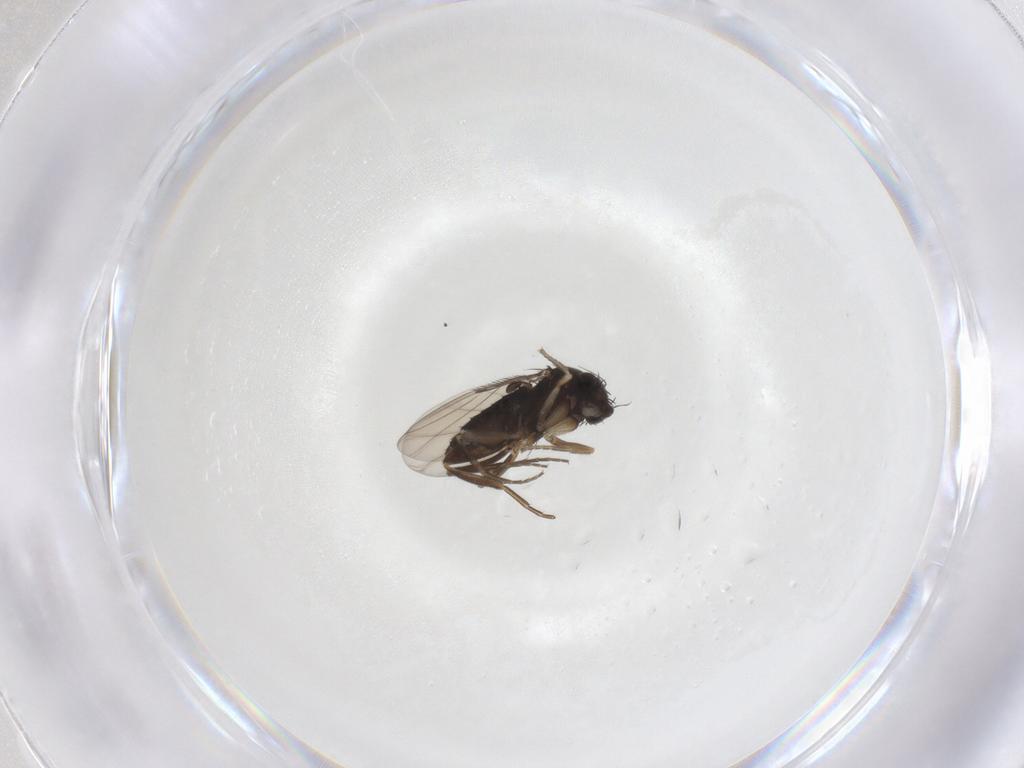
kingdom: Animalia
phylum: Arthropoda
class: Insecta
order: Diptera
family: Phoridae
